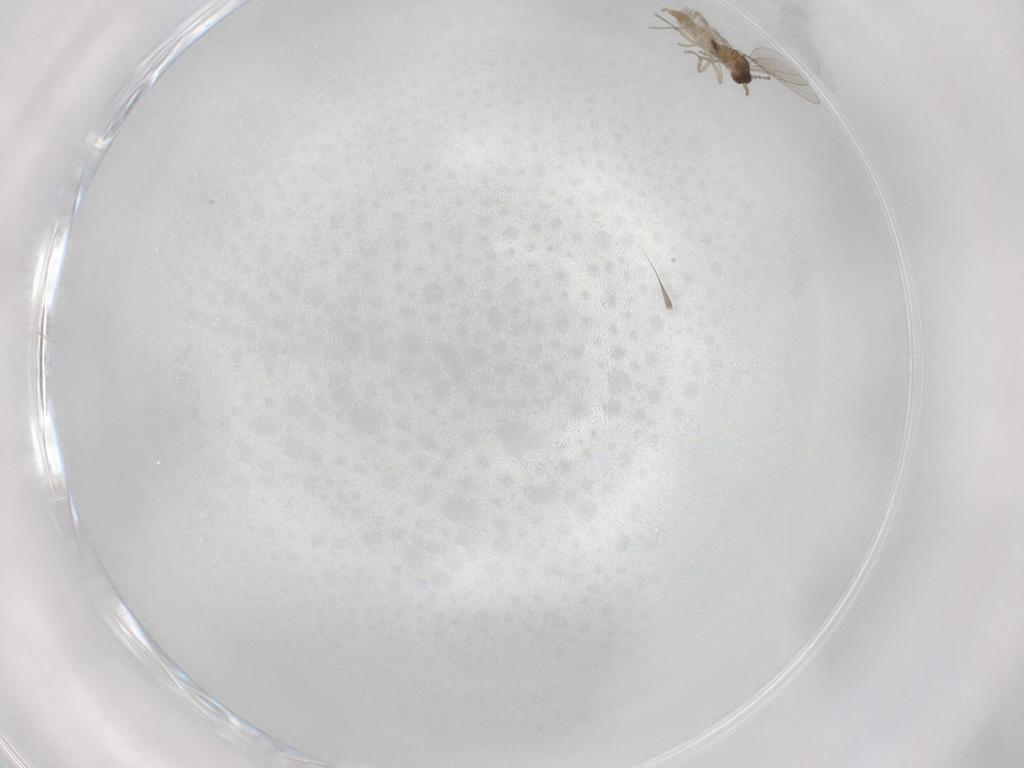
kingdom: Animalia
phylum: Arthropoda
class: Insecta
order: Diptera
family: Cecidomyiidae
